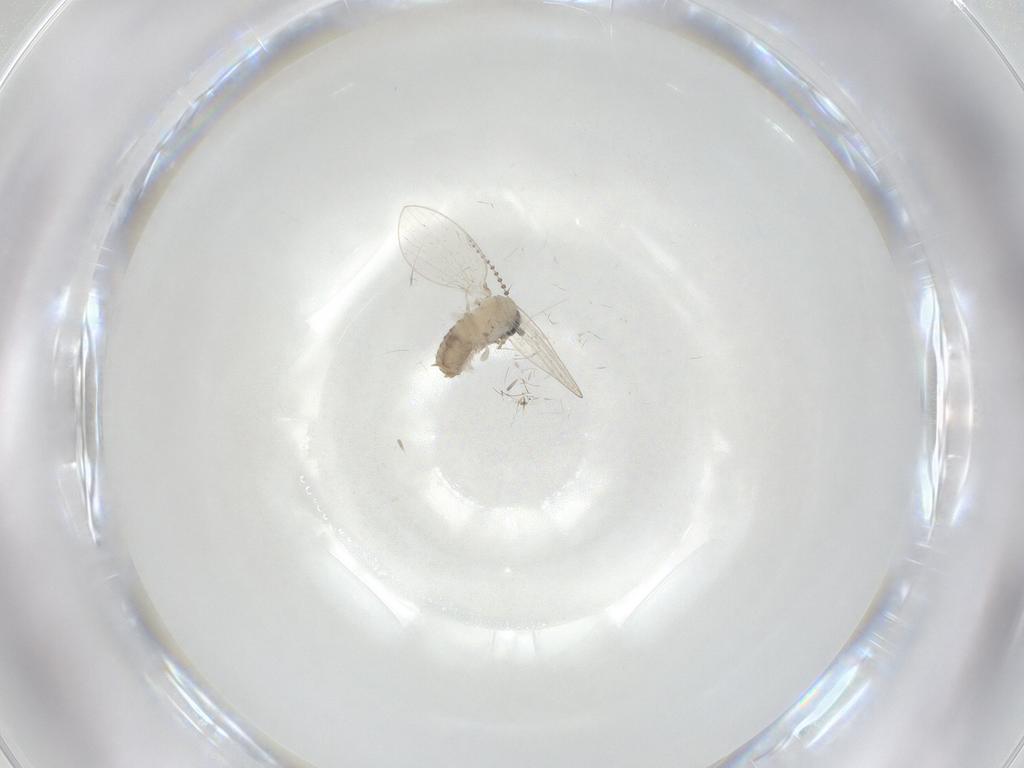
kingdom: Animalia
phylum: Arthropoda
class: Insecta
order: Diptera
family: Psychodidae
